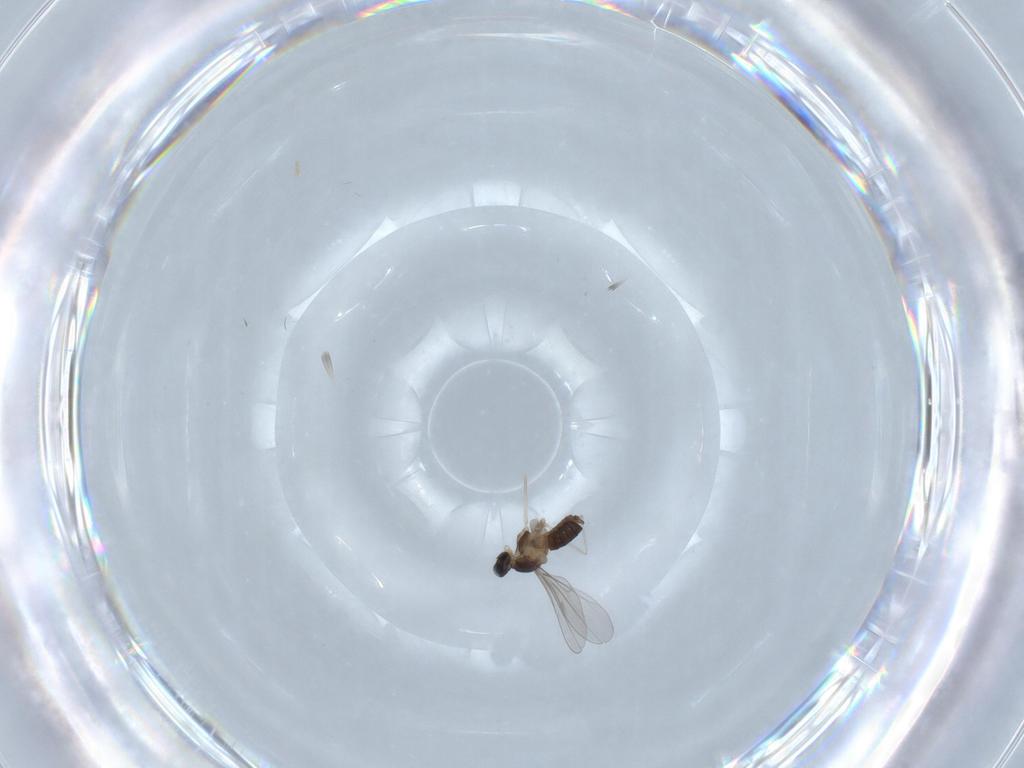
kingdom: Animalia
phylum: Arthropoda
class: Insecta
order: Diptera
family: Cecidomyiidae
